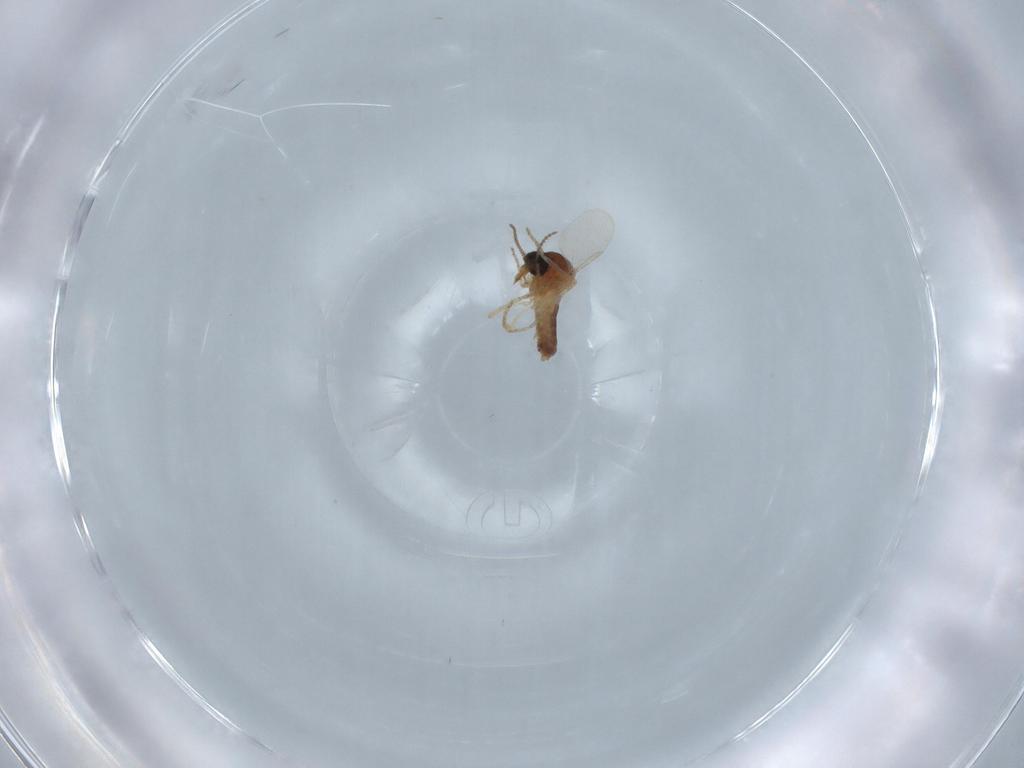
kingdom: Animalia
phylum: Arthropoda
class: Insecta
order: Diptera
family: Ceratopogonidae
